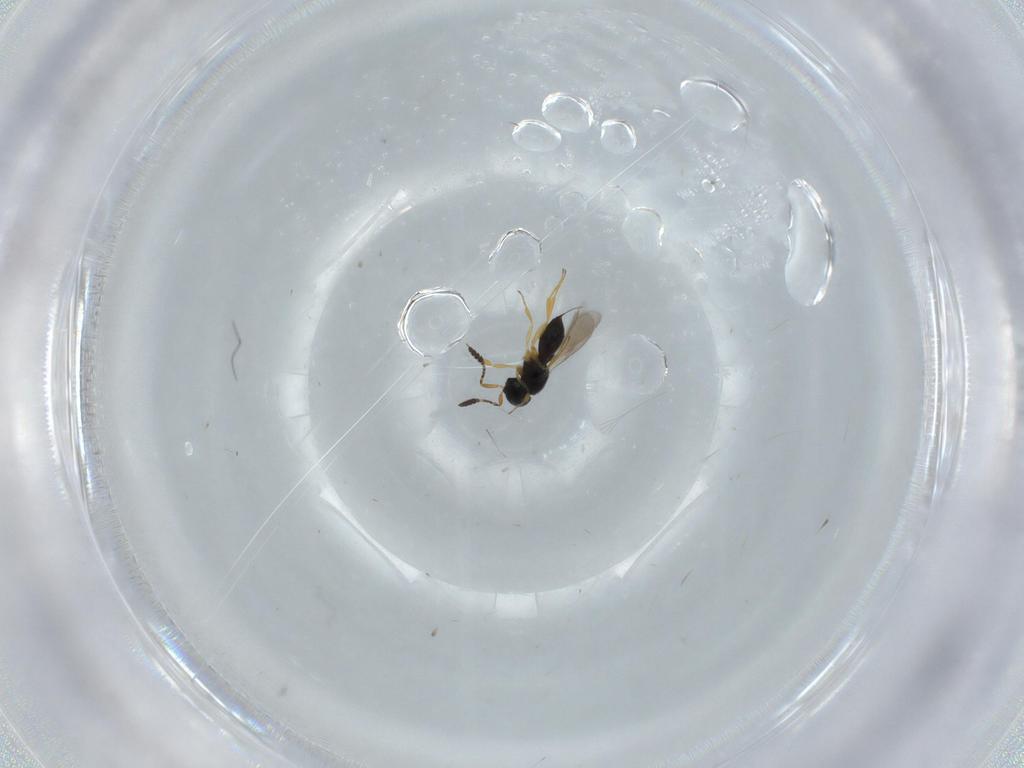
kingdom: Animalia
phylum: Arthropoda
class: Insecta
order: Hymenoptera
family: Scelionidae
